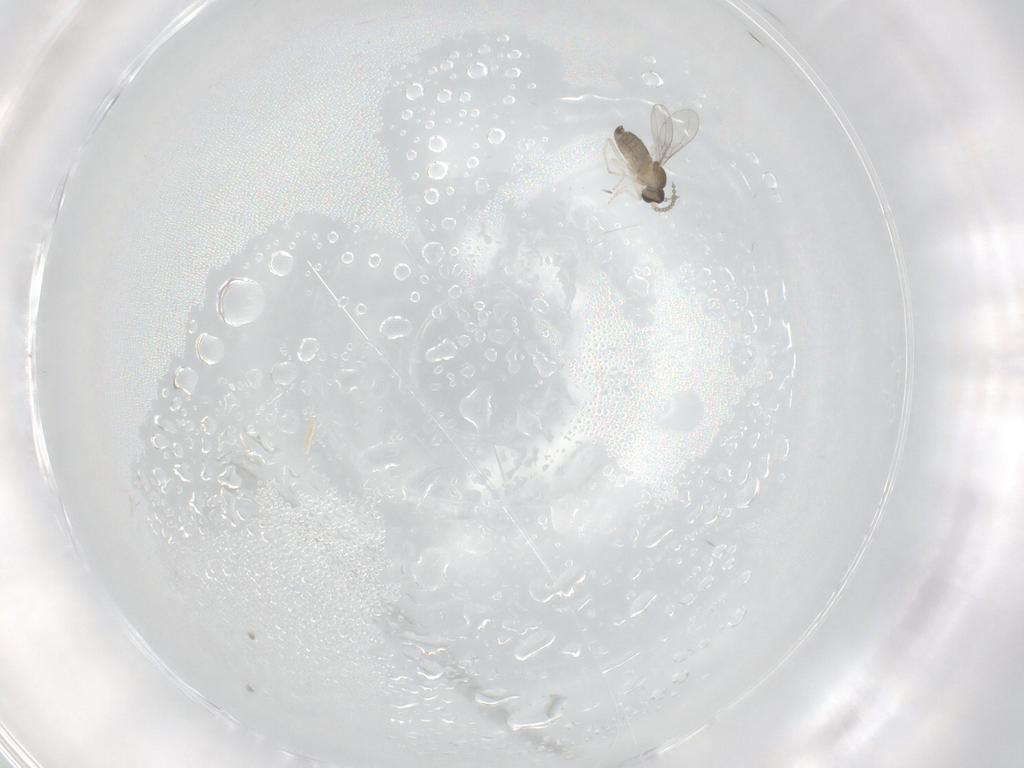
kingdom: Animalia
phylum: Arthropoda
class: Insecta
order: Diptera
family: Cecidomyiidae
